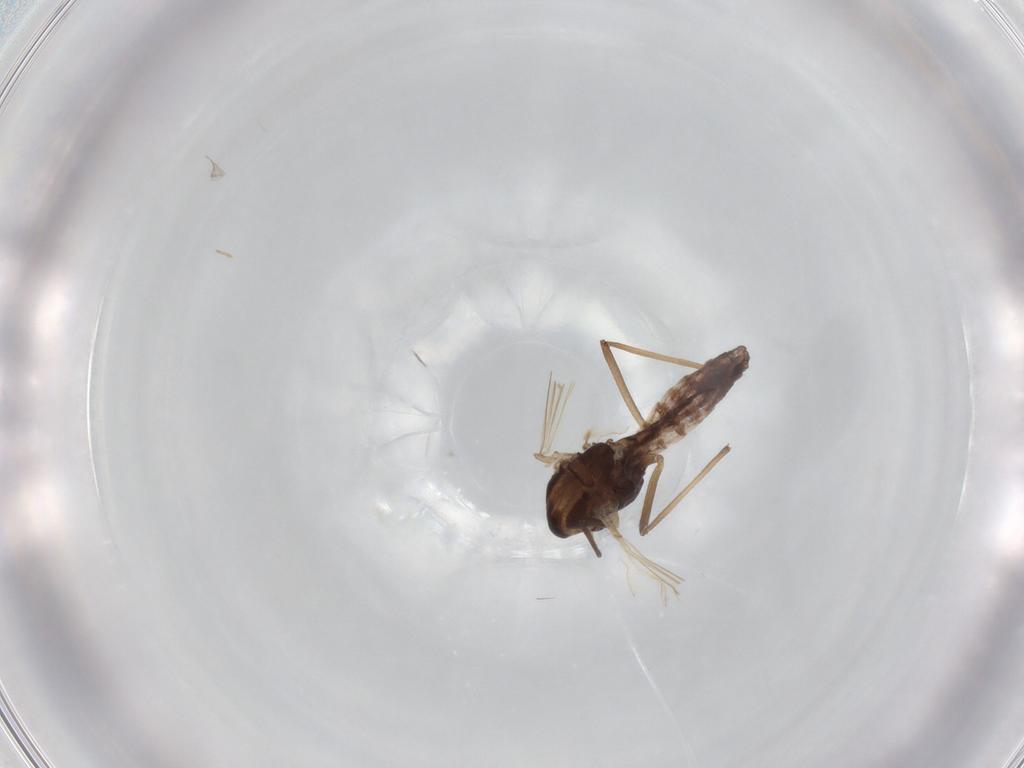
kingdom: Animalia
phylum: Arthropoda
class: Insecta
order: Diptera
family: Chironomidae
